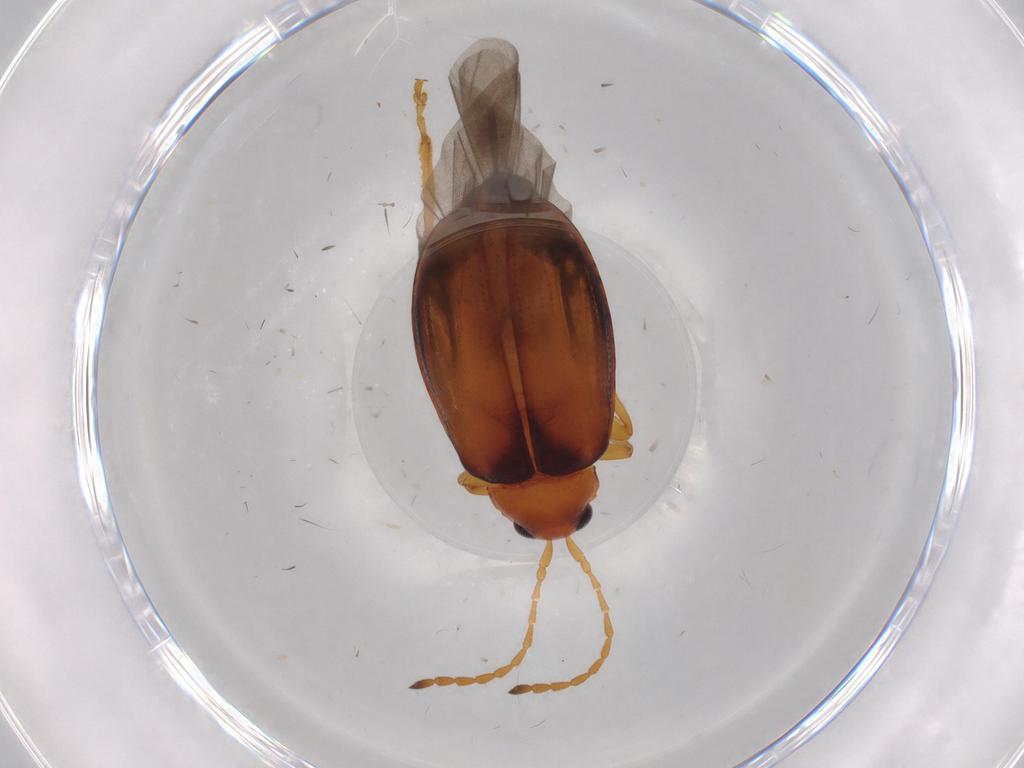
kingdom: Animalia
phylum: Arthropoda
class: Insecta
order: Coleoptera
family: Chrysomelidae
